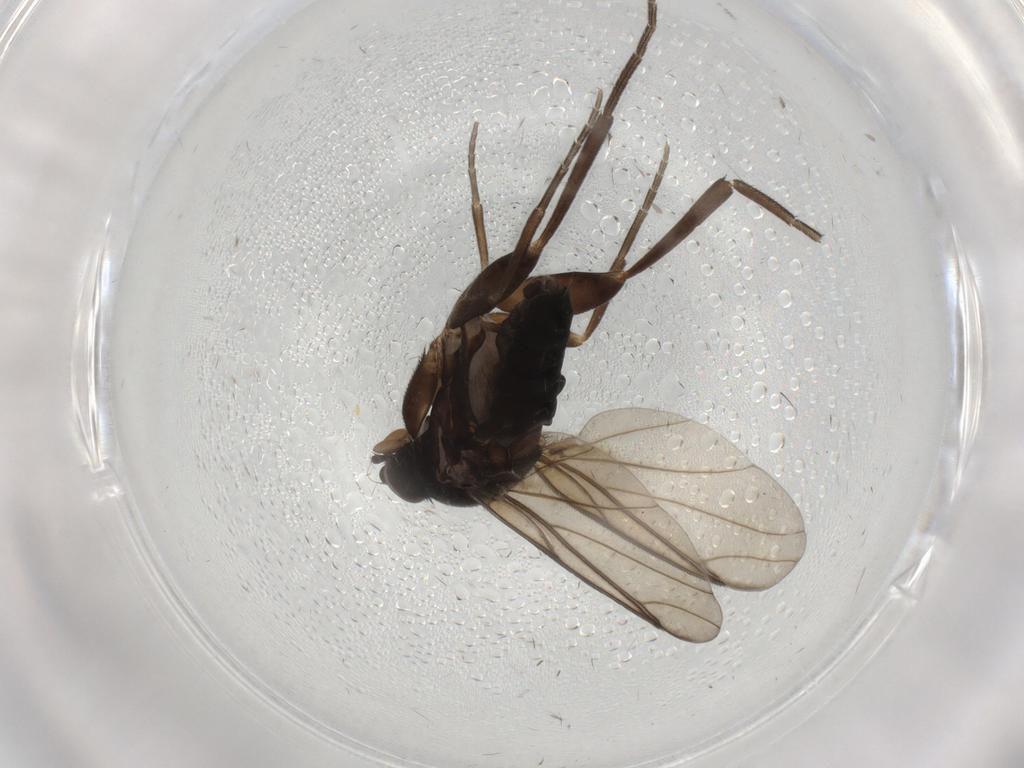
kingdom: Animalia
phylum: Arthropoda
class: Insecta
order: Diptera
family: Phoridae
